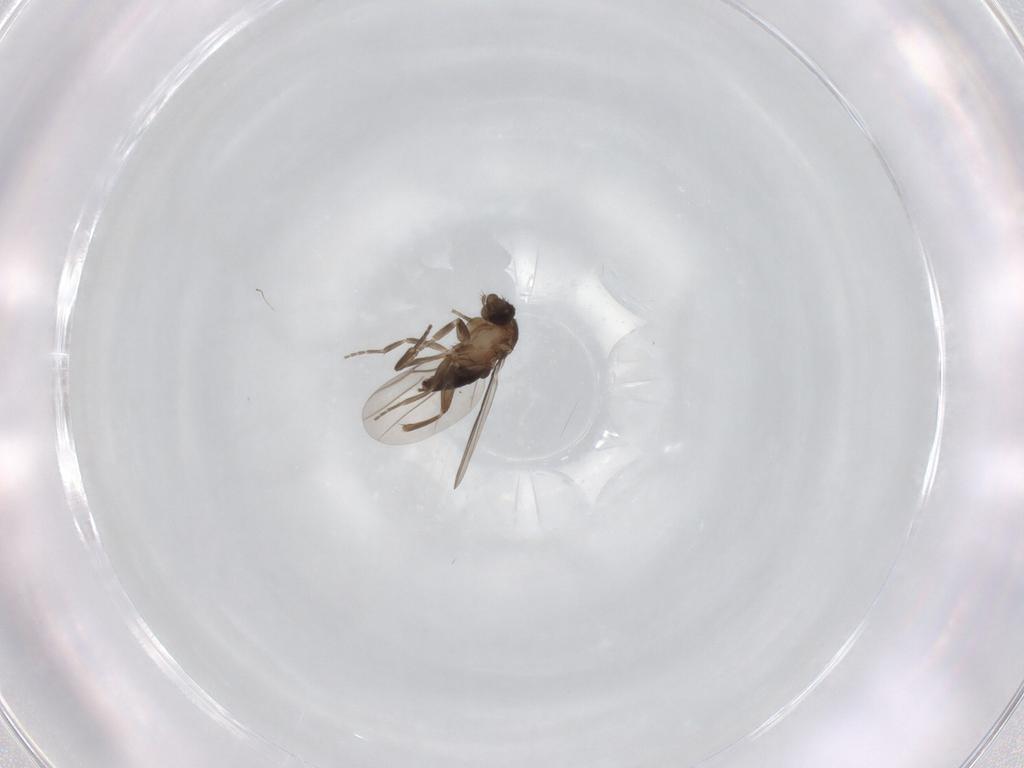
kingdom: Animalia
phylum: Arthropoda
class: Insecta
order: Diptera
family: Phoridae
